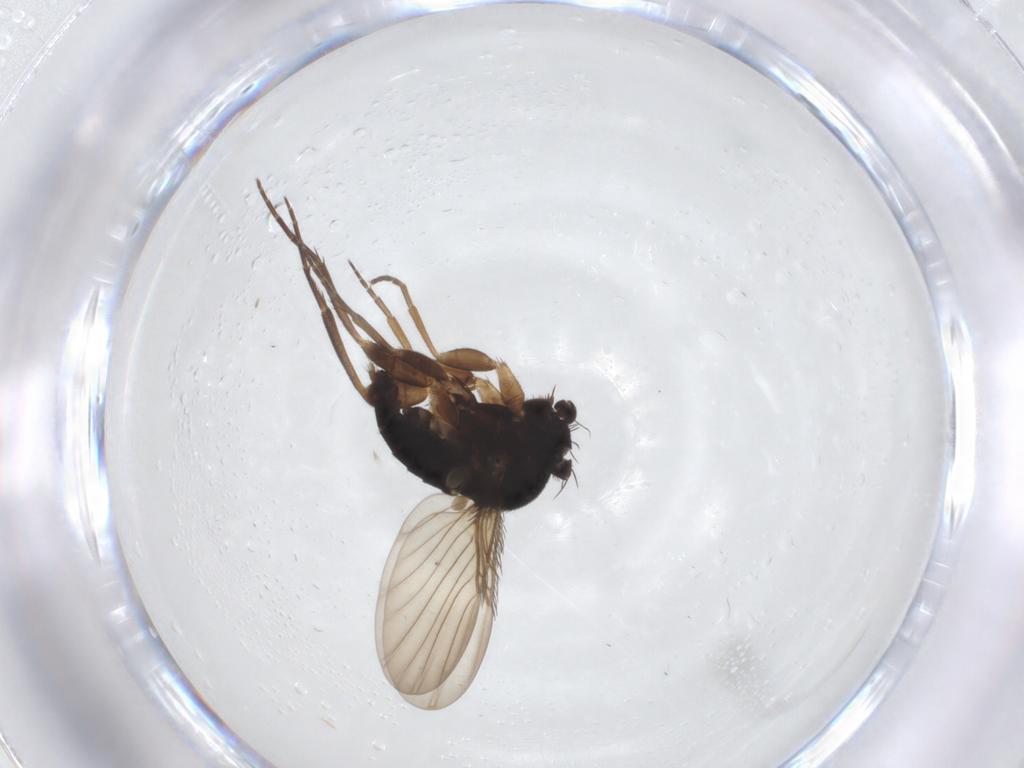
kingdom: Animalia
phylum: Arthropoda
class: Insecta
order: Diptera
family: Phoridae
